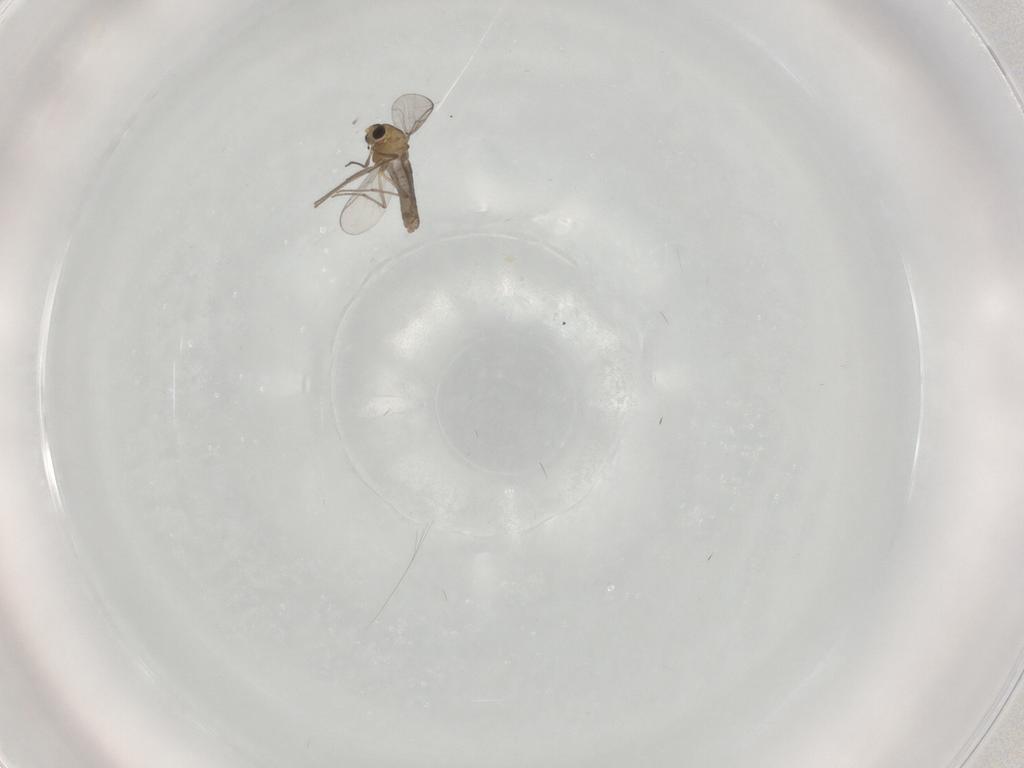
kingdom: Animalia
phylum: Arthropoda
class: Insecta
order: Diptera
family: Chironomidae
